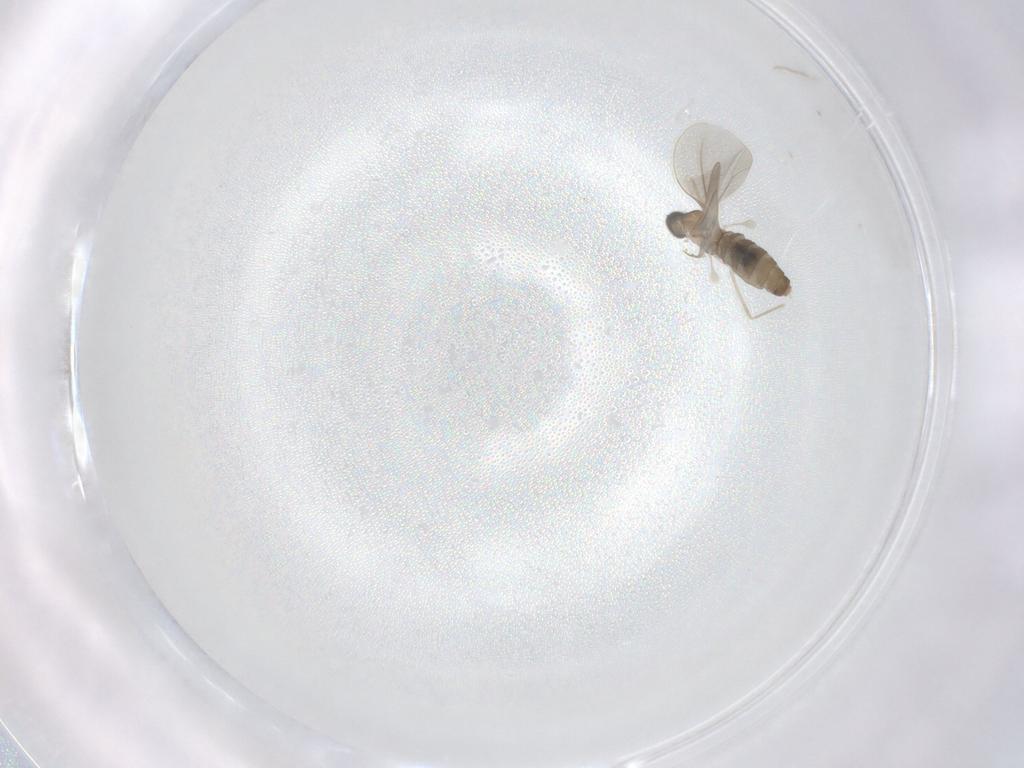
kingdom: Animalia
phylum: Arthropoda
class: Insecta
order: Diptera
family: Cecidomyiidae
